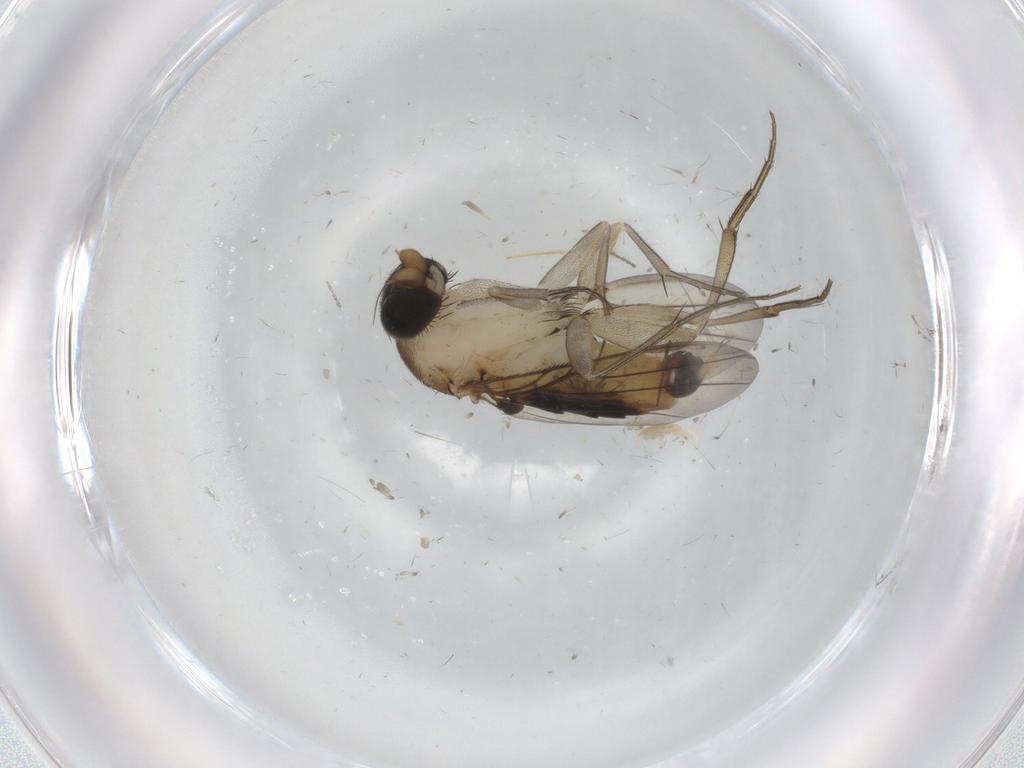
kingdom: Animalia
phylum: Arthropoda
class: Insecta
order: Diptera
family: Phoridae
